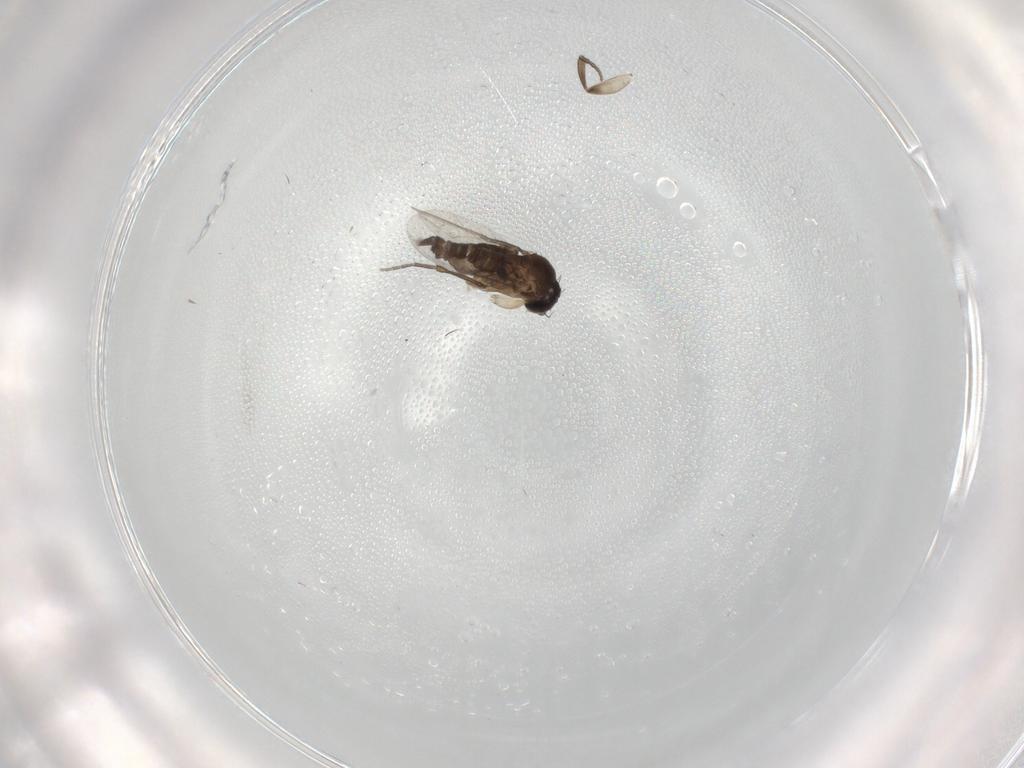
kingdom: Animalia
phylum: Arthropoda
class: Insecta
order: Diptera
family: Phoridae
